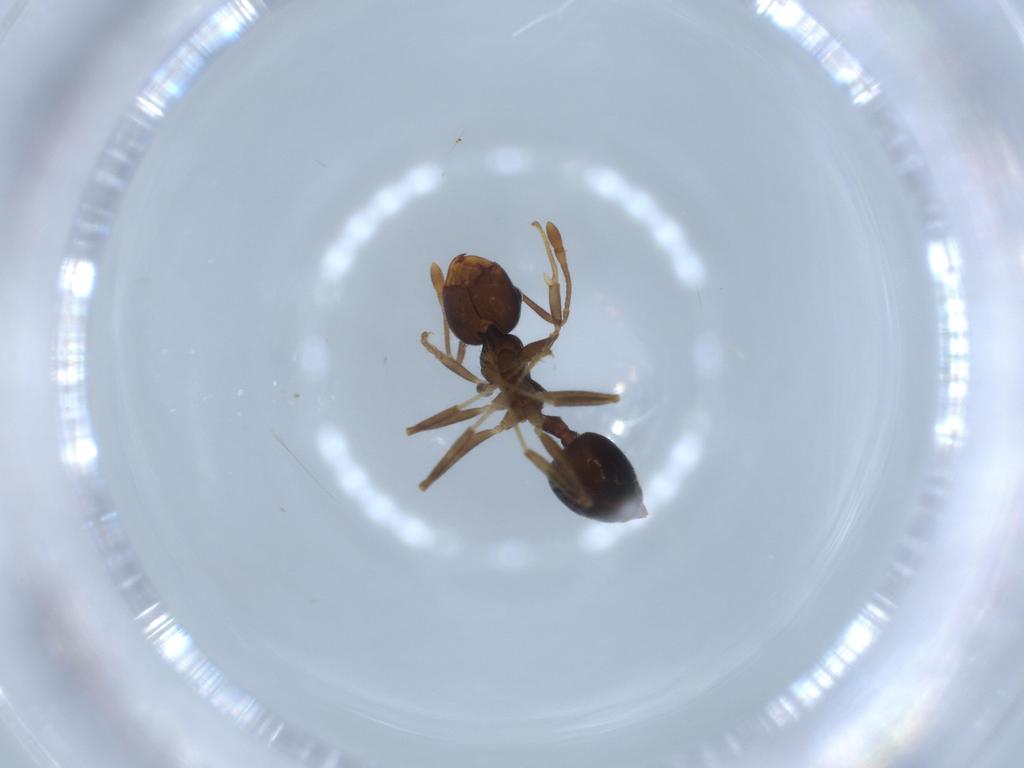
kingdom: Animalia
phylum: Arthropoda
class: Insecta
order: Hymenoptera
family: Formicidae
